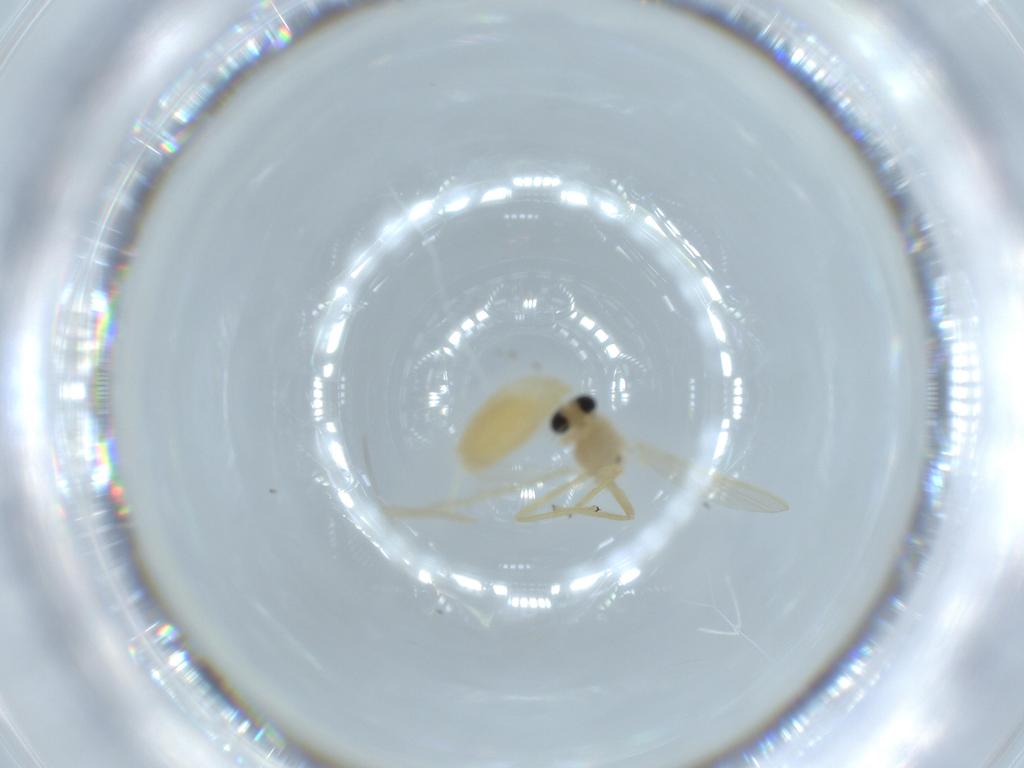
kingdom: Animalia
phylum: Arthropoda
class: Insecta
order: Diptera
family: Chironomidae
